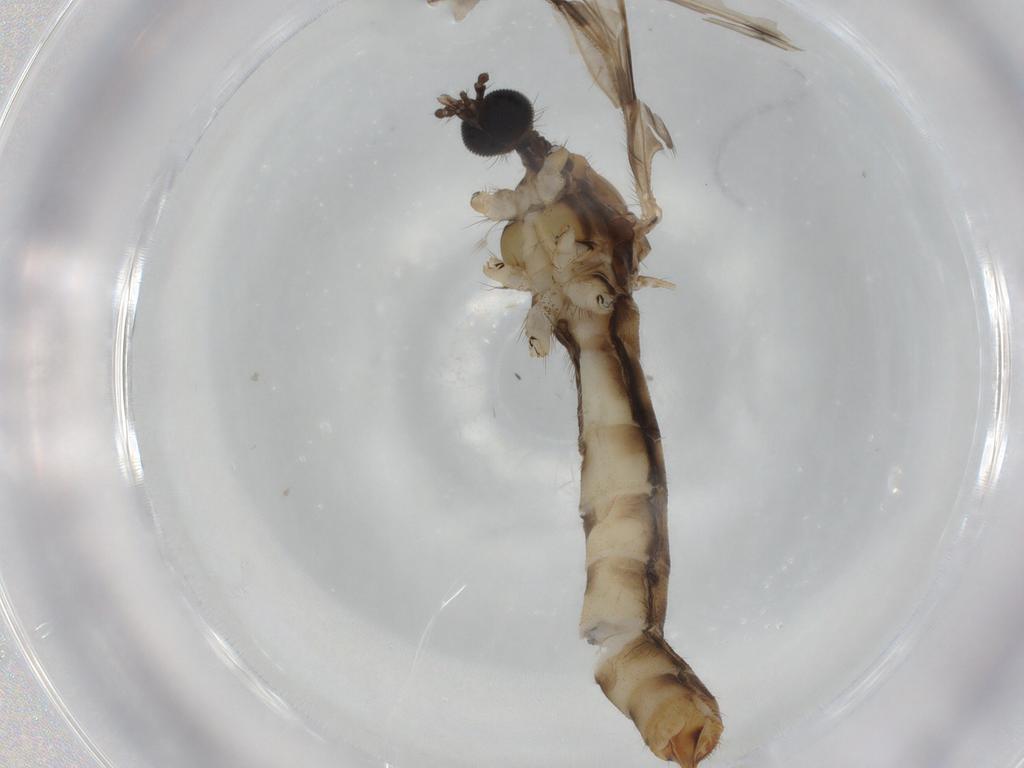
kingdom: Animalia
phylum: Arthropoda
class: Insecta
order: Diptera
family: Limoniidae
